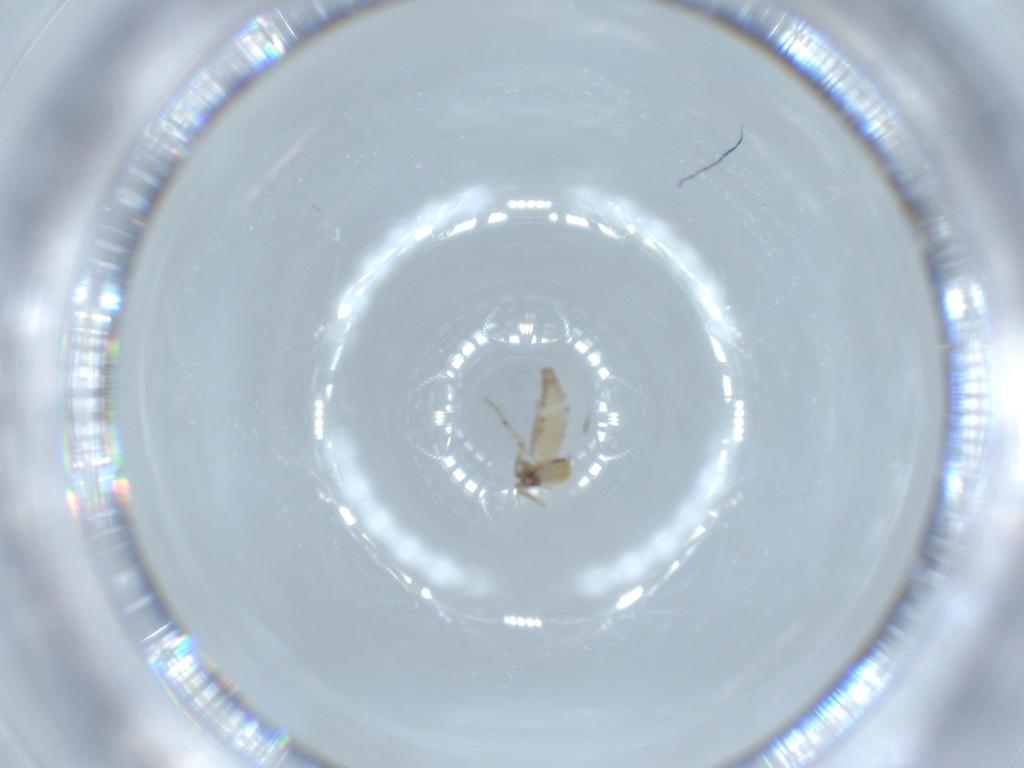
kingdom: Animalia
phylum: Arthropoda
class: Insecta
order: Diptera
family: Ceratopogonidae
